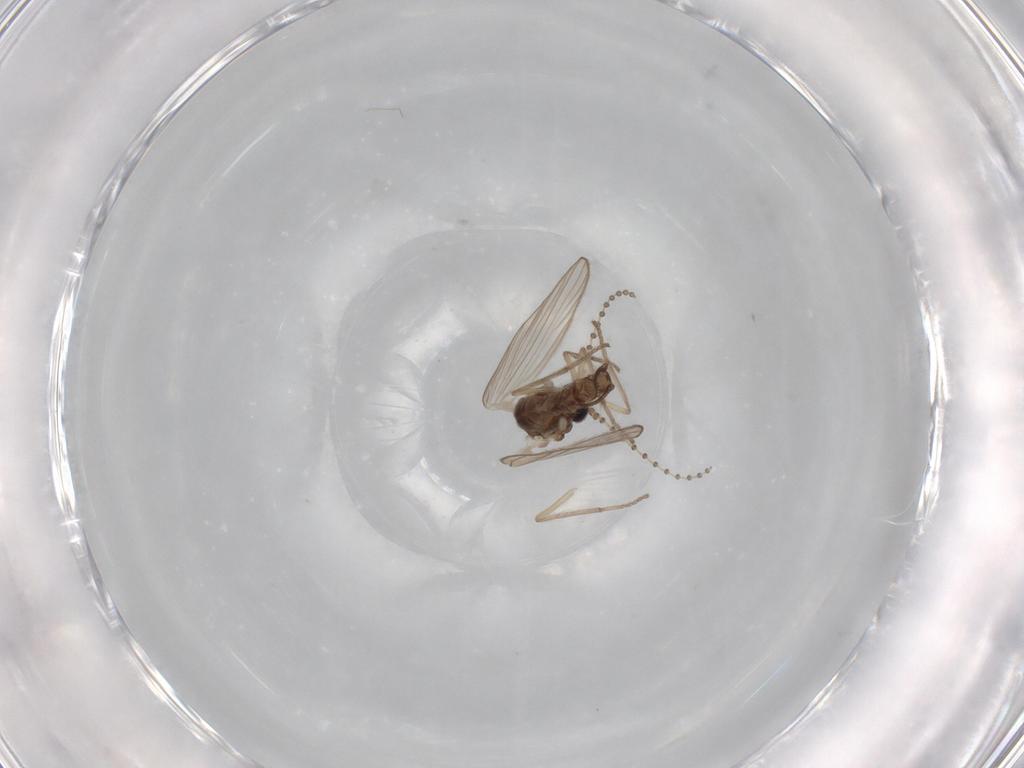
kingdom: Animalia
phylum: Arthropoda
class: Insecta
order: Diptera
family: Psychodidae
